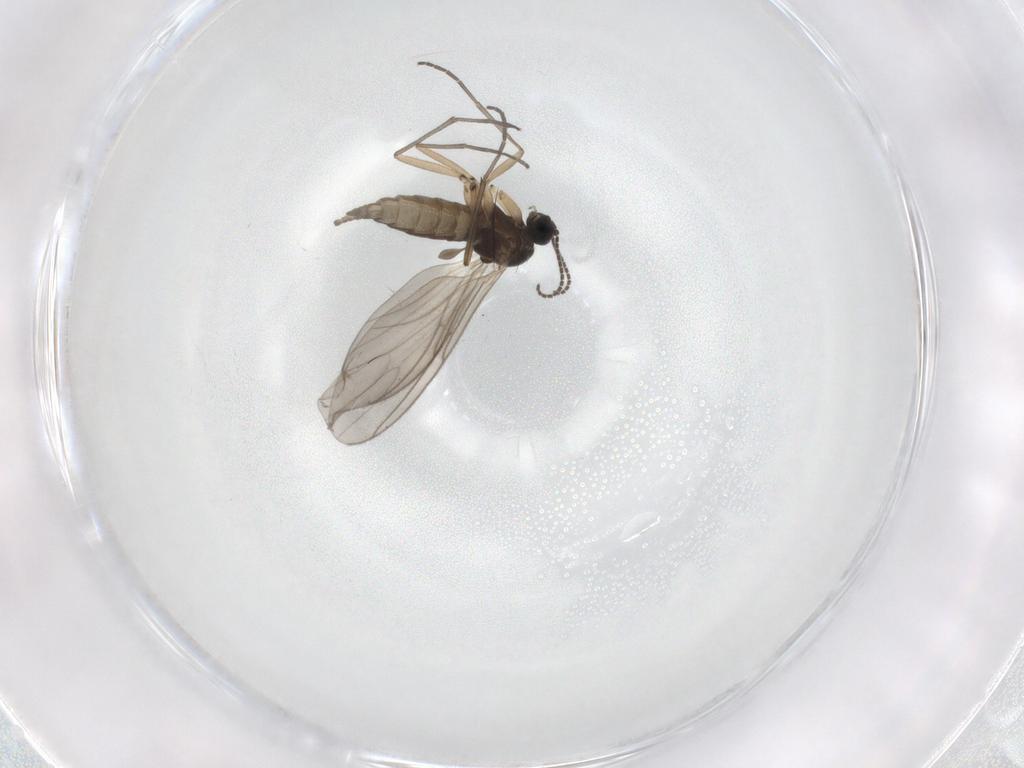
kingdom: Animalia
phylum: Arthropoda
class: Insecta
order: Diptera
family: Sciaridae
